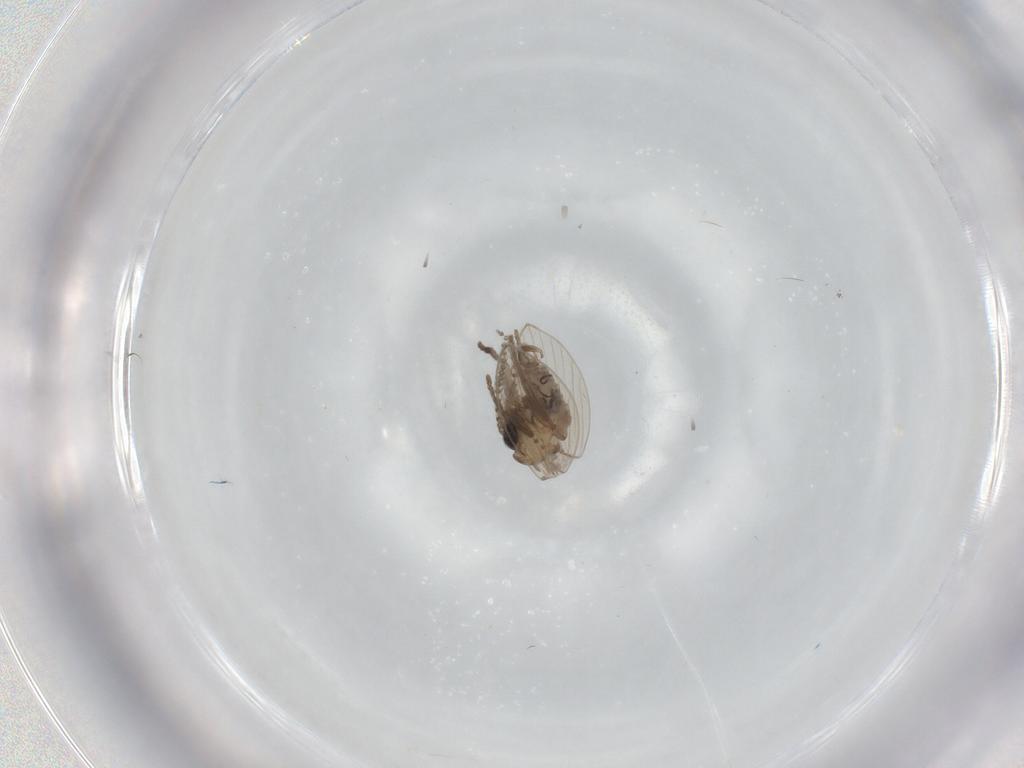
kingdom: Animalia
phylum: Arthropoda
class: Insecta
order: Diptera
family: Psychodidae
